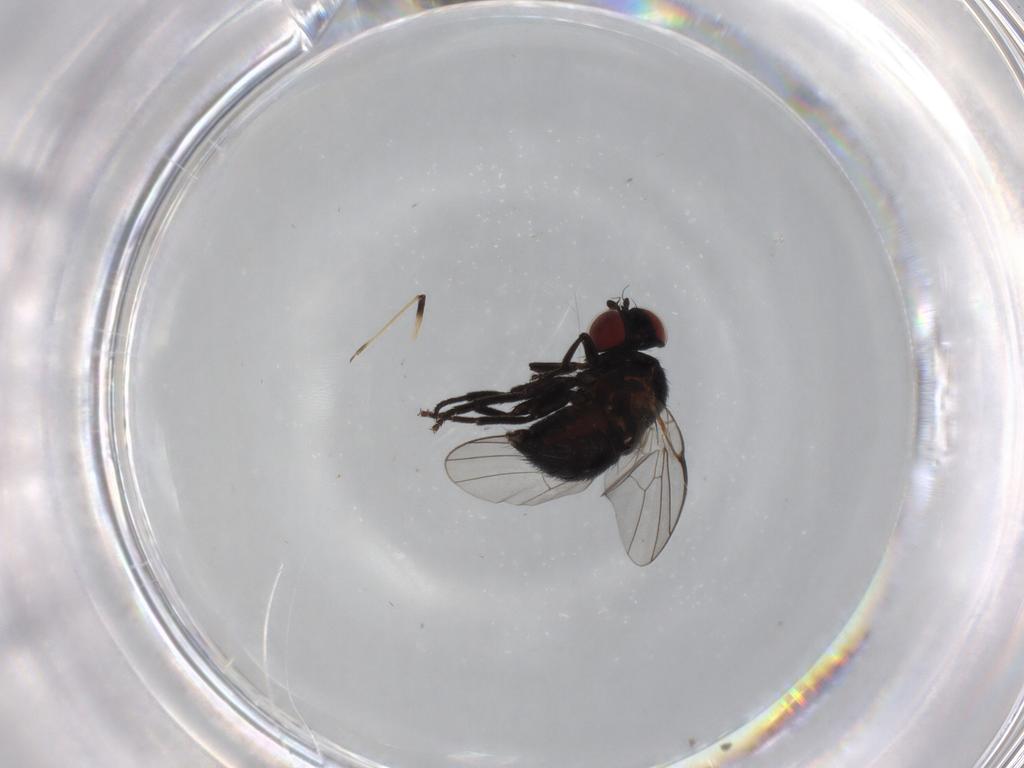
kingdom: Animalia
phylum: Arthropoda
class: Insecta
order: Diptera
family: Agromyzidae
